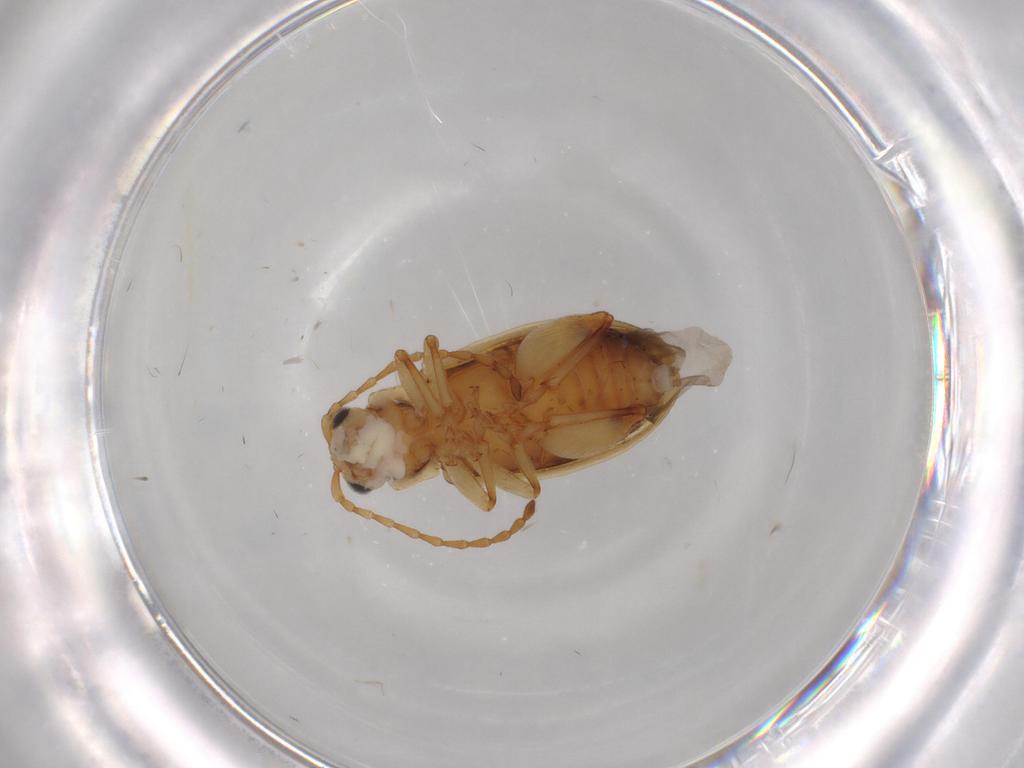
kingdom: Animalia
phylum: Arthropoda
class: Insecta
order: Coleoptera
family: Chrysomelidae
